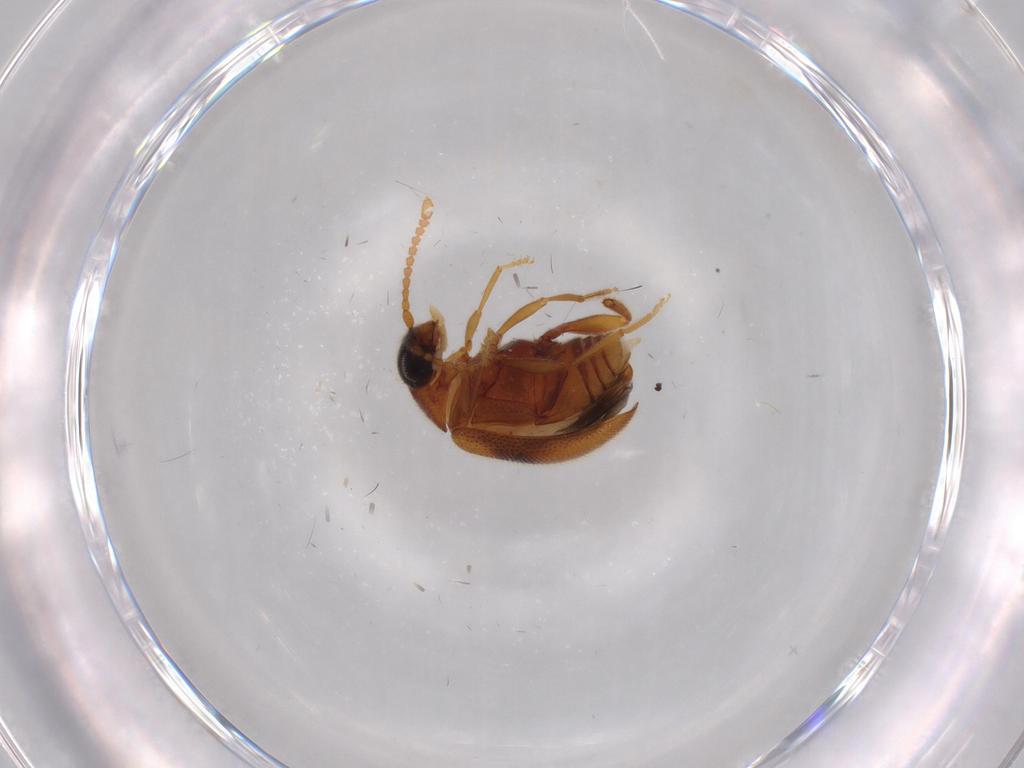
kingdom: Animalia
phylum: Arthropoda
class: Insecta
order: Coleoptera
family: Aderidae
